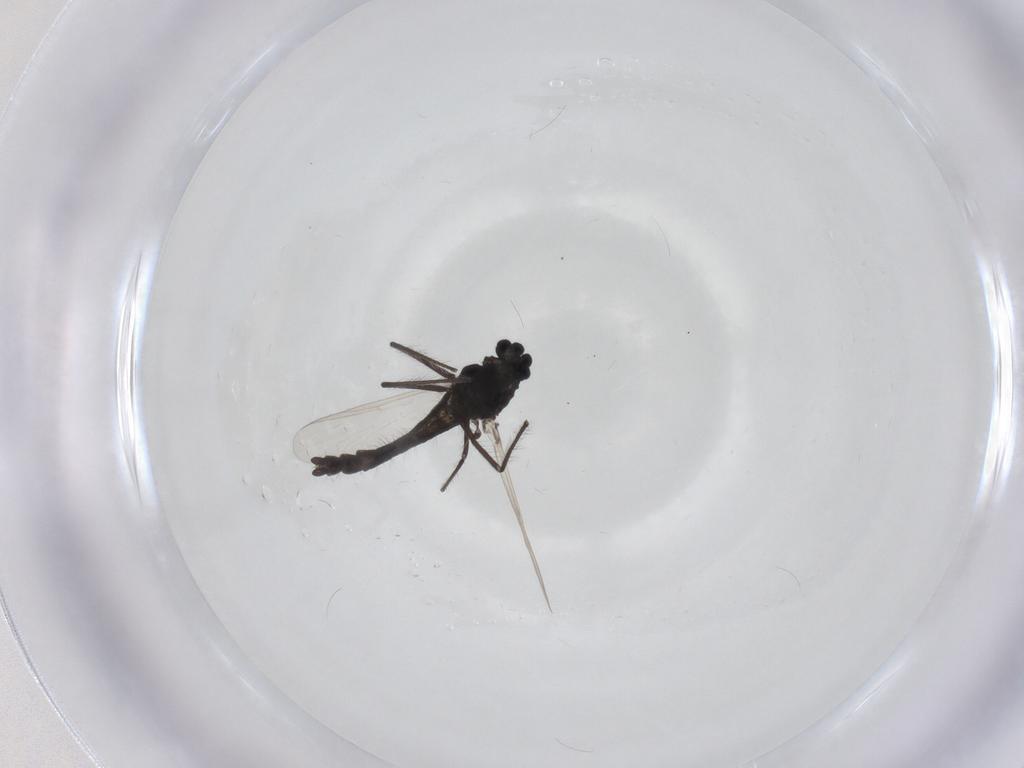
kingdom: Animalia
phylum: Arthropoda
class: Insecta
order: Diptera
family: Chironomidae
